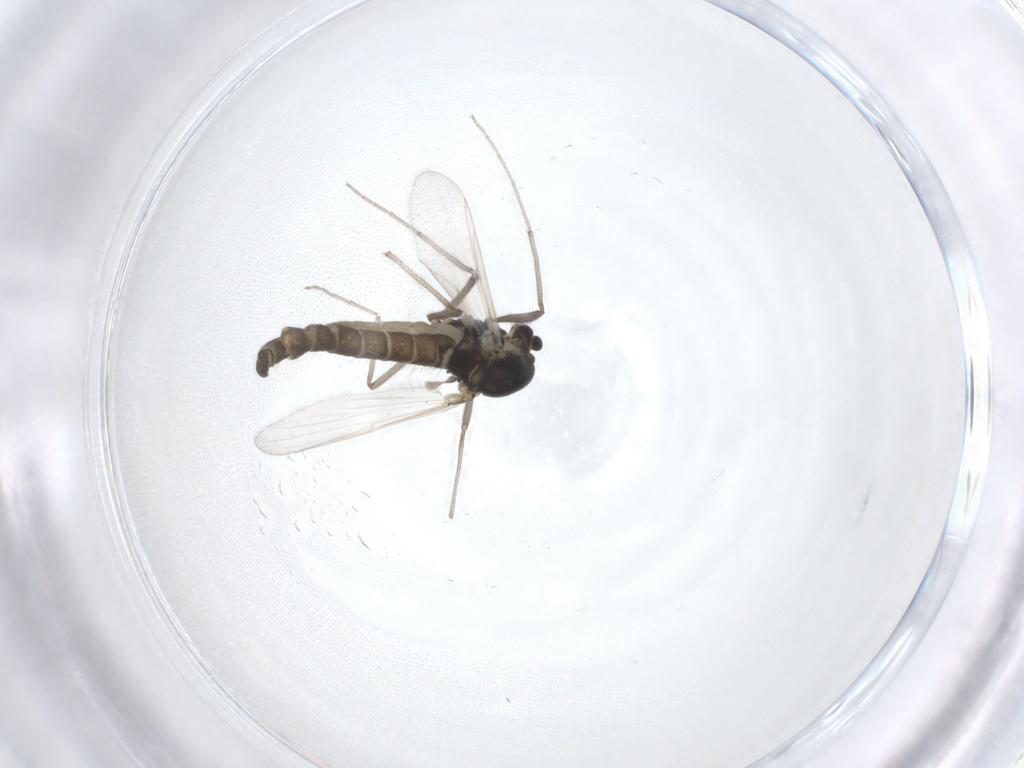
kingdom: Animalia
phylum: Arthropoda
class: Insecta
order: Diptera
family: Chironomidae
